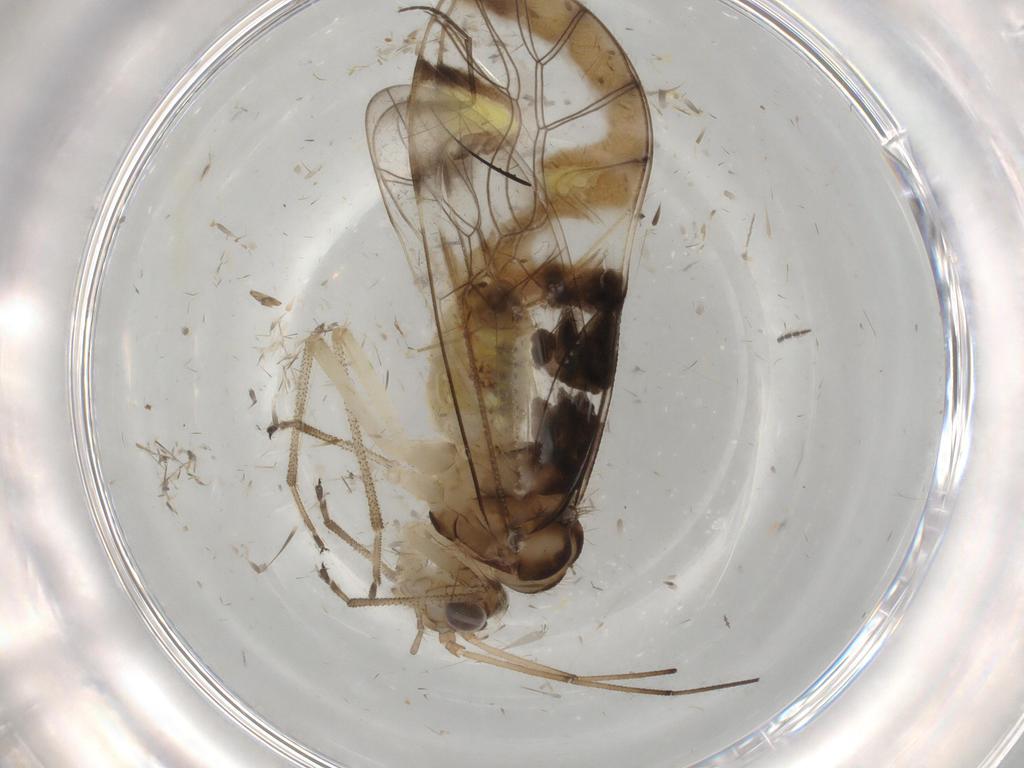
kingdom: Animalia
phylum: Arthropoda
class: Insecta
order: Psocodea
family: Amphipsocidae
